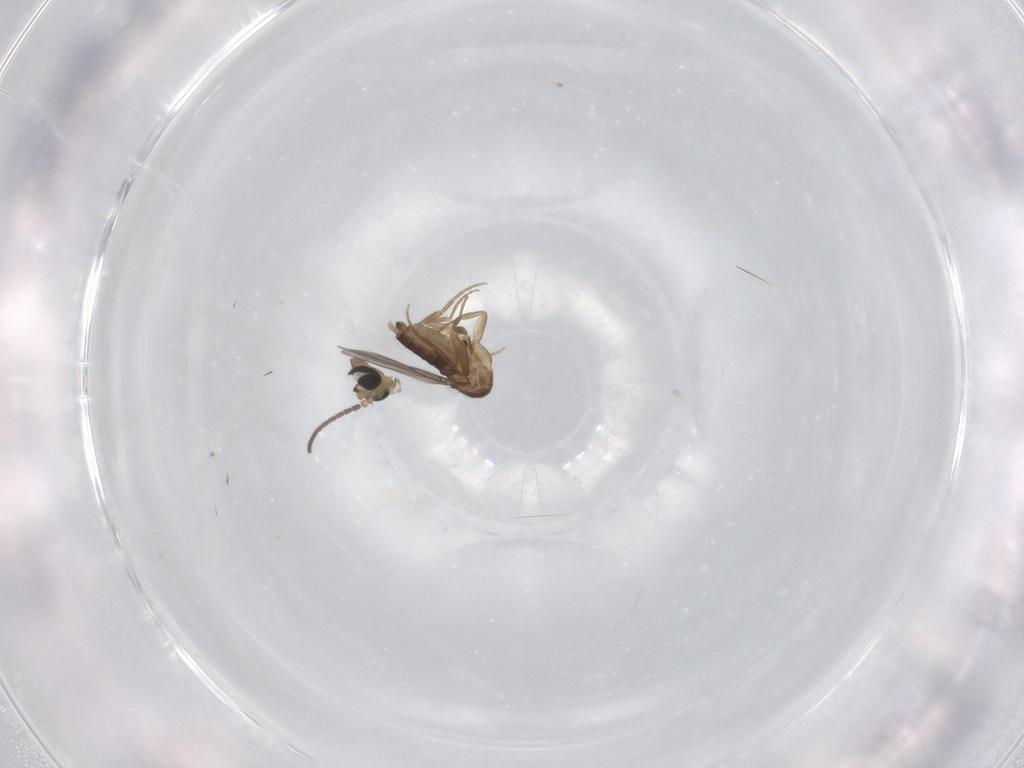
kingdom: Animalia
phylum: Arthropoda
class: Insecta
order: Diptera
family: Phoridae
